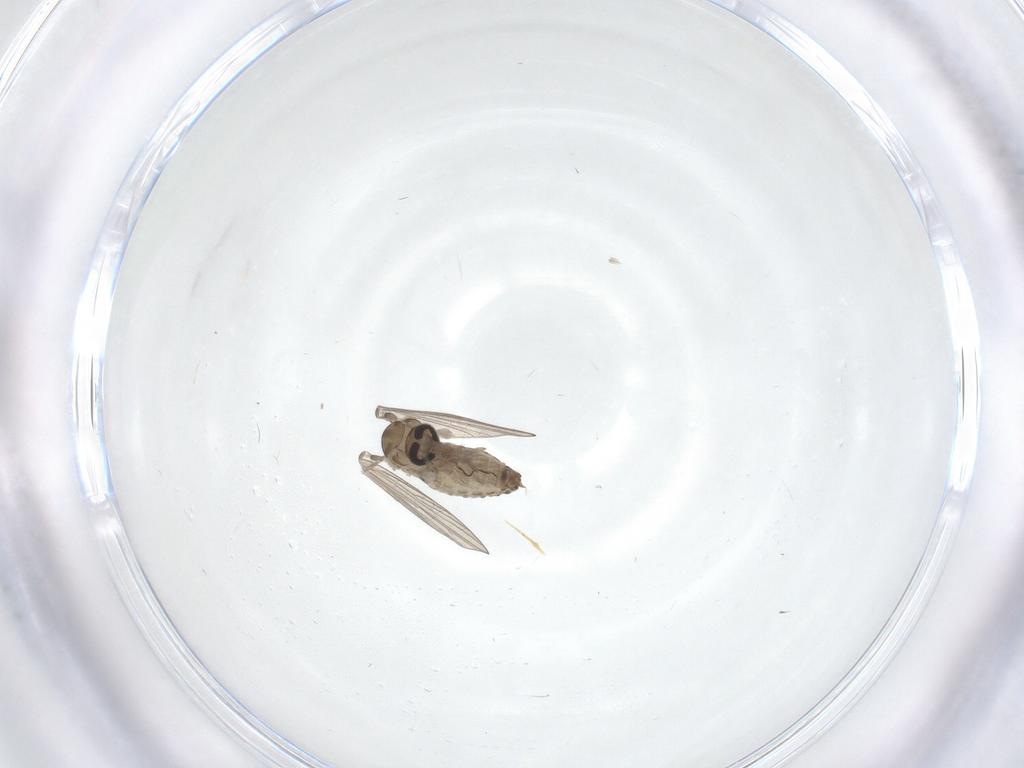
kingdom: Animalia
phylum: Arthropoda
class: Insecta
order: Diptera
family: Psychodidae
